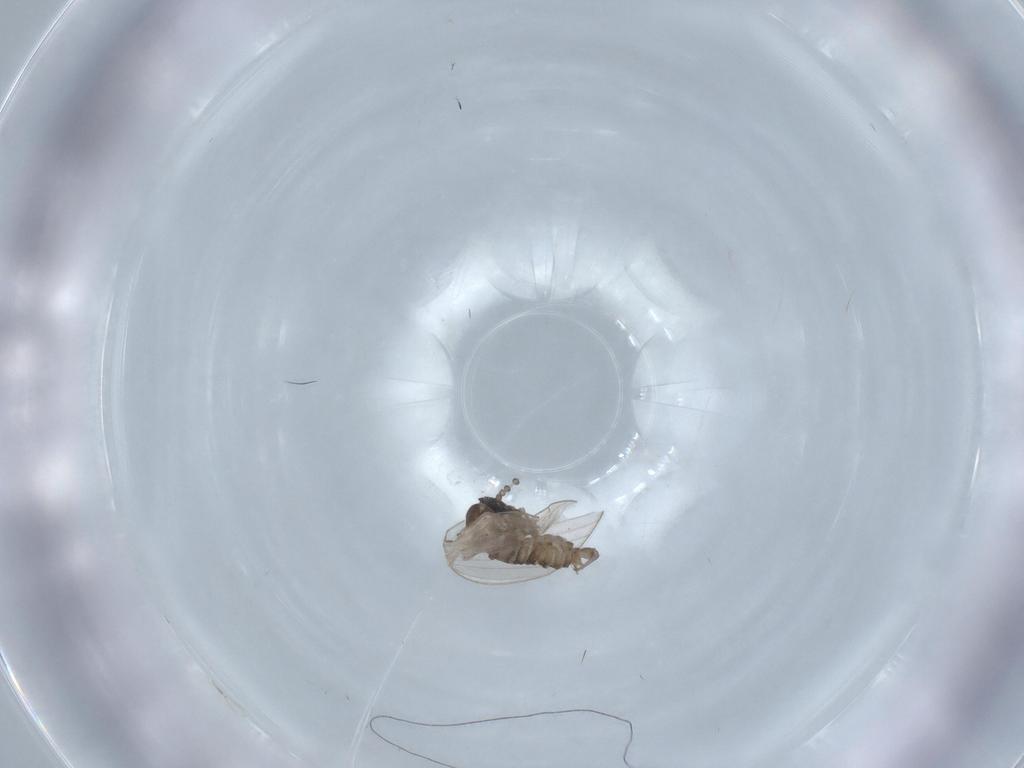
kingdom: Animalia
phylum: Arthropoda
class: Insecta
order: Diptera
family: Psychodidae
